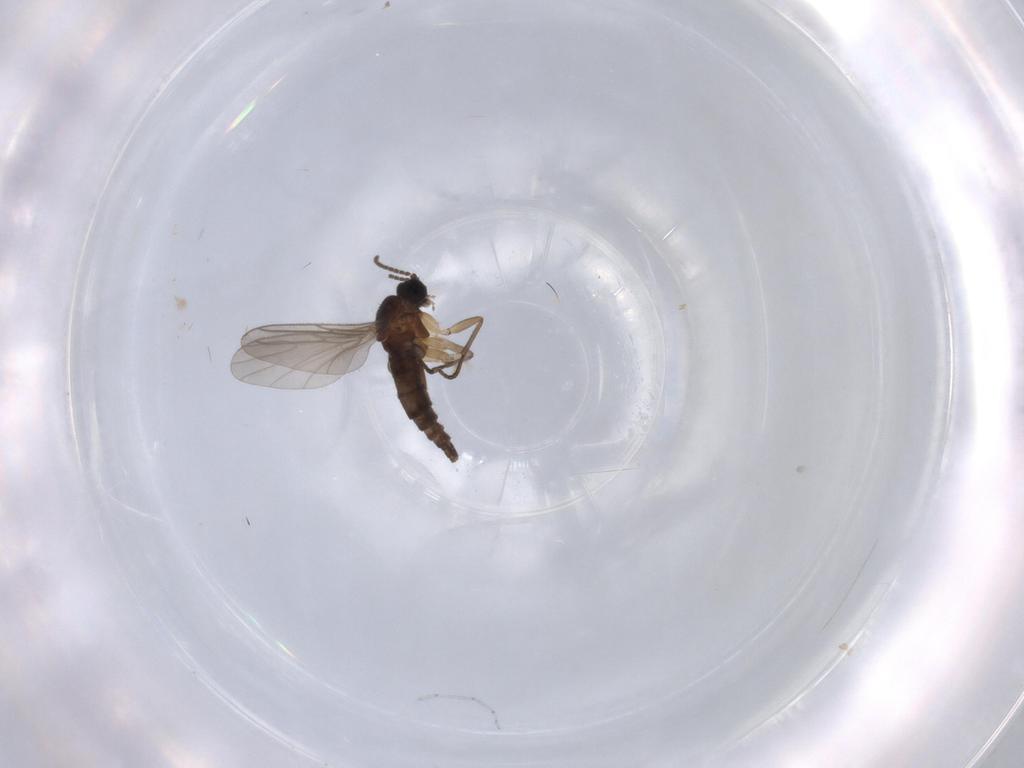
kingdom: Animalia
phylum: Arthropoda
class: Insecta
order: Diptera
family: Sciaridae
